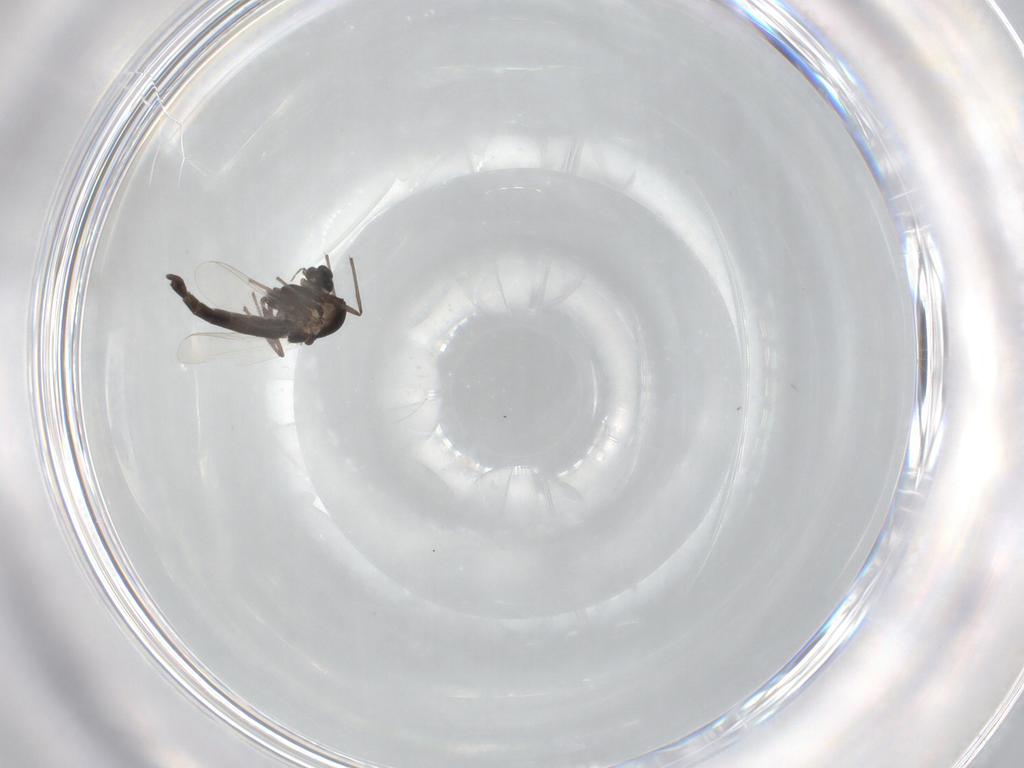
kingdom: Animalia
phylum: Arthropoda
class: Insecta
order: Diptera
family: Chironomidae
